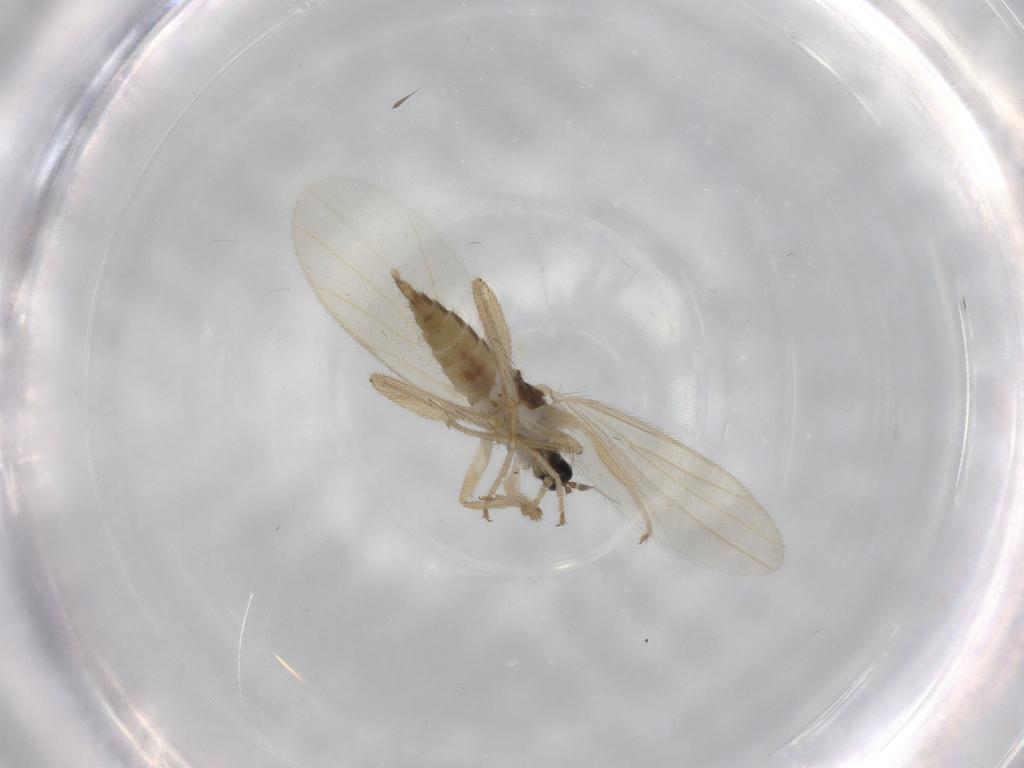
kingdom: Animalia
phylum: Arthropoda
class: Insecta
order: Diptera
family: Hybotidae
